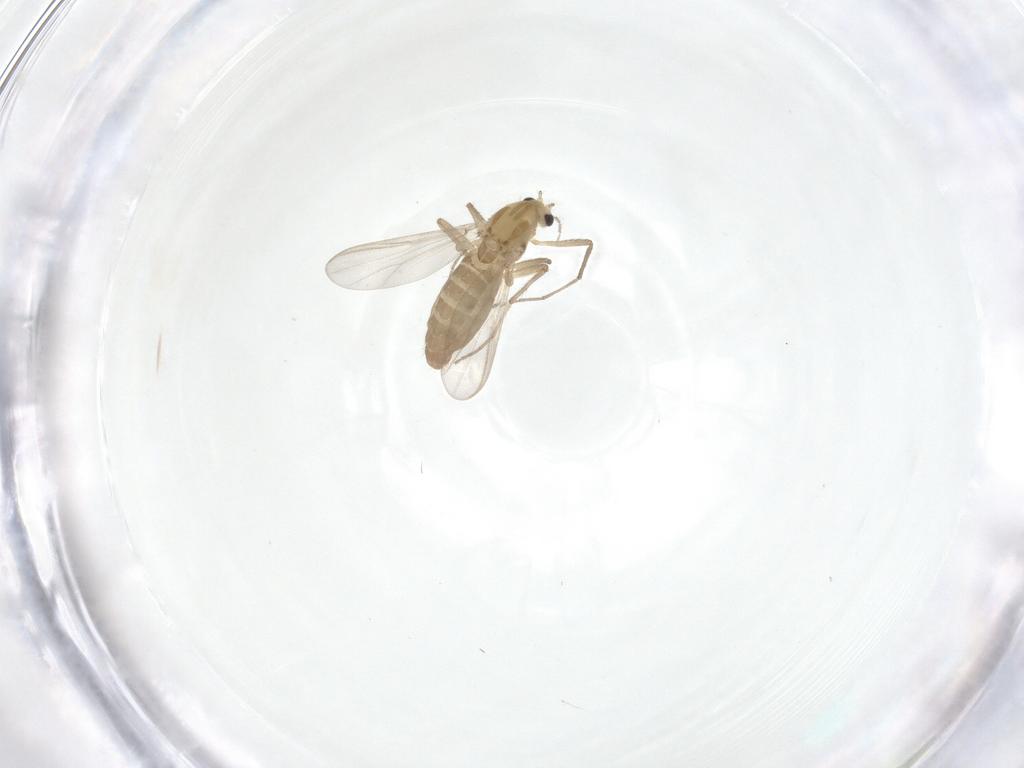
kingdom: Animalia
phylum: Arthropoda
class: Insecta
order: Diptera
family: Chironomidae
